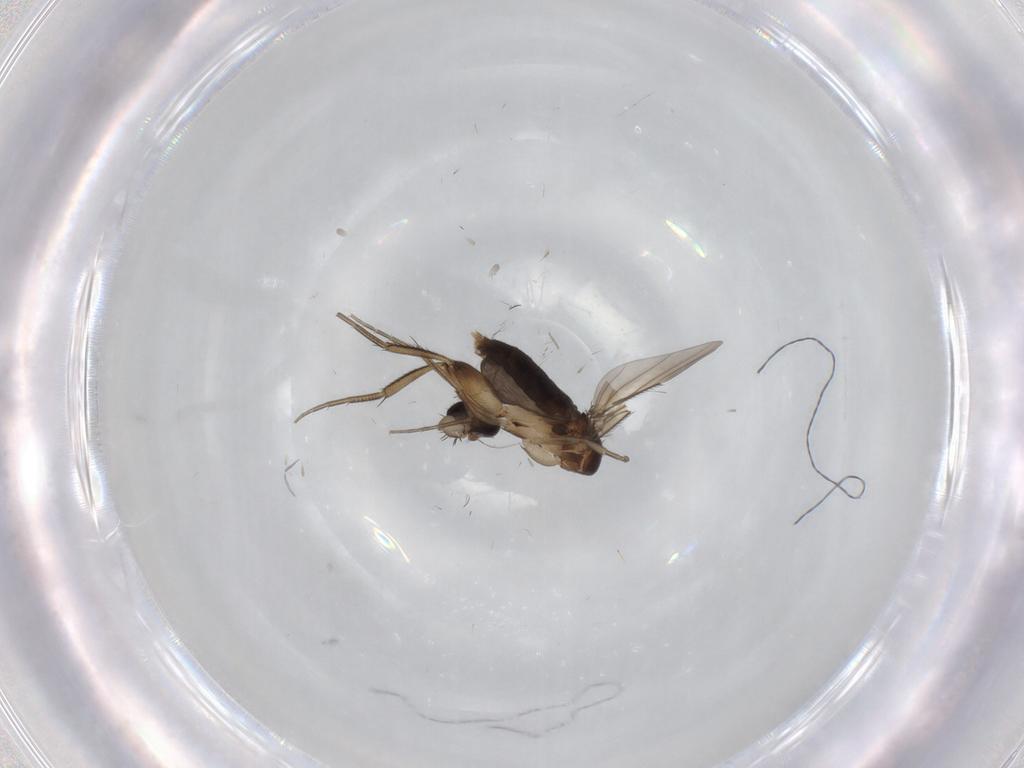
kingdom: Animalia
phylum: Arthropoda
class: Insecta
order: Diptera
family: Phoridae
